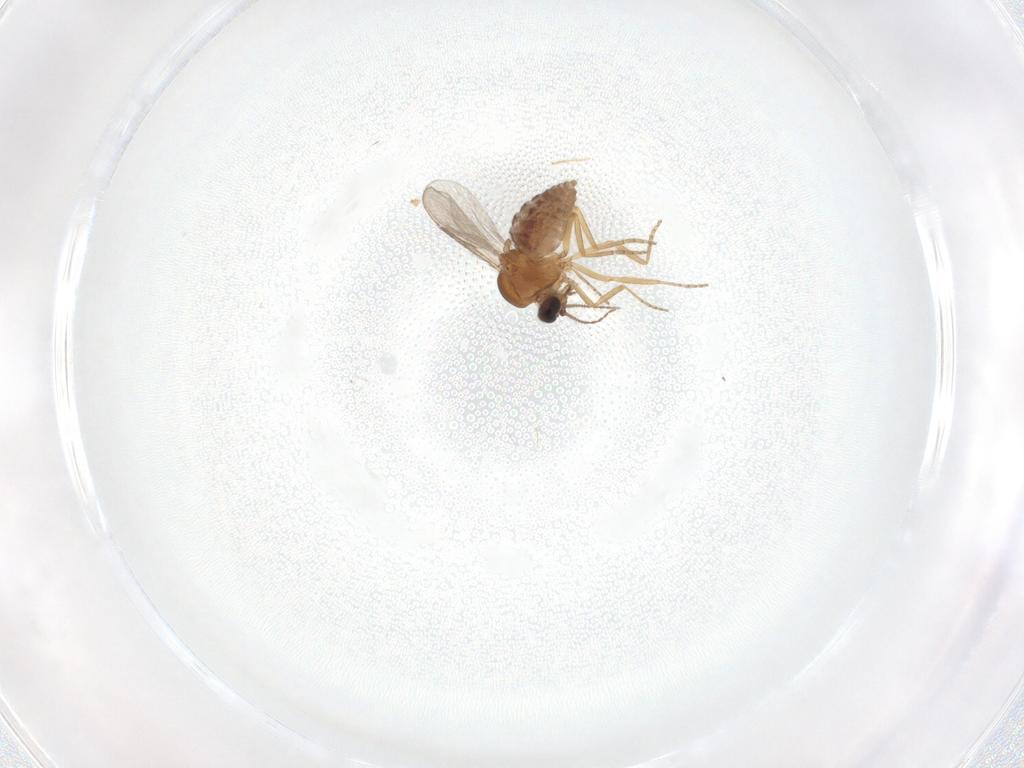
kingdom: Animalia
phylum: Arthropoda
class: Insecta
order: Diptera
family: Ceratopogonidae
